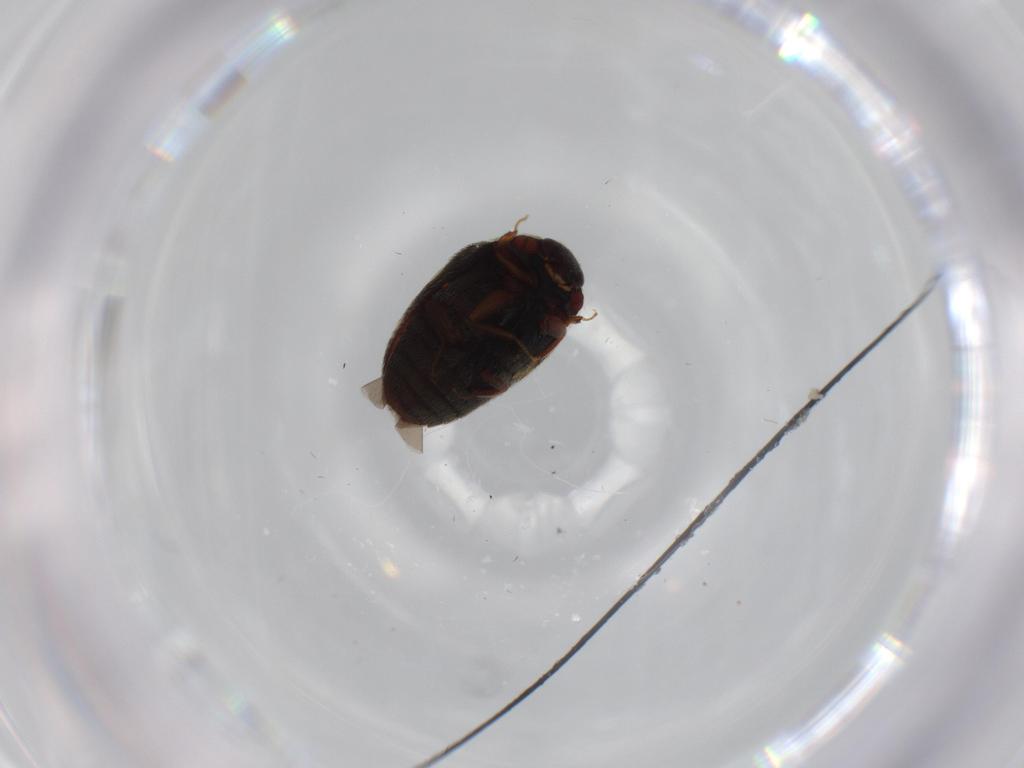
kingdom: Animalia
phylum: Arthropoda
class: Insecta
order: Coleoptera
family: Dermestidae
